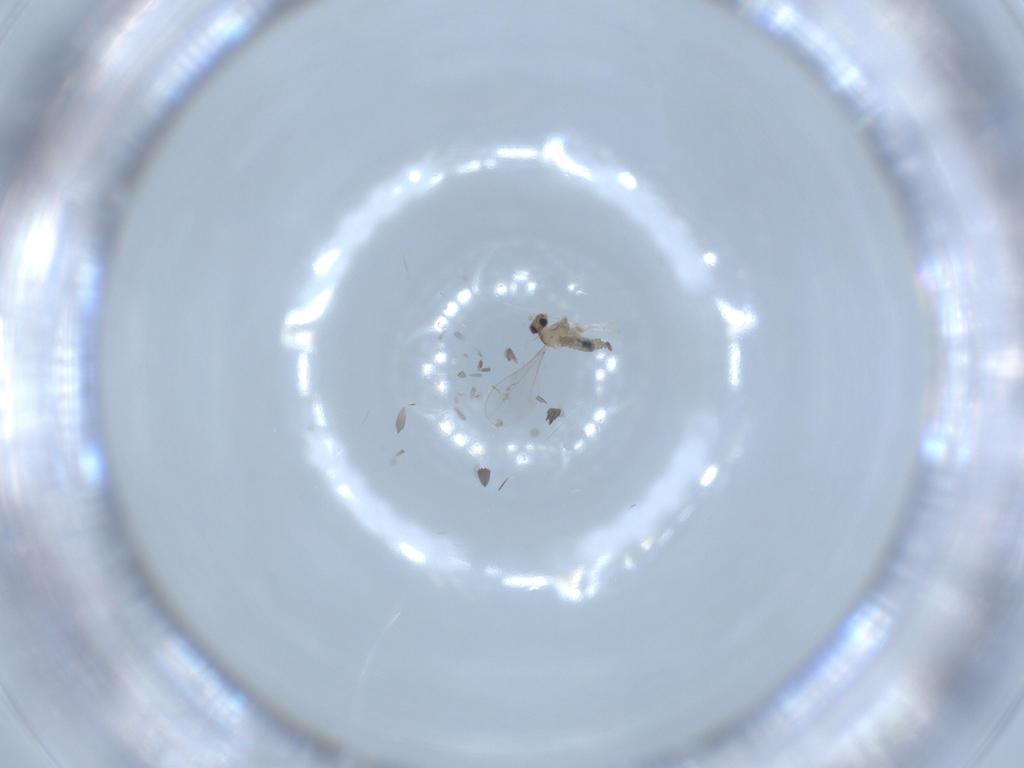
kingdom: Animalia
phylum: Arthropoda
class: Insecta
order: Diptera
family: Cecidomyiidae
